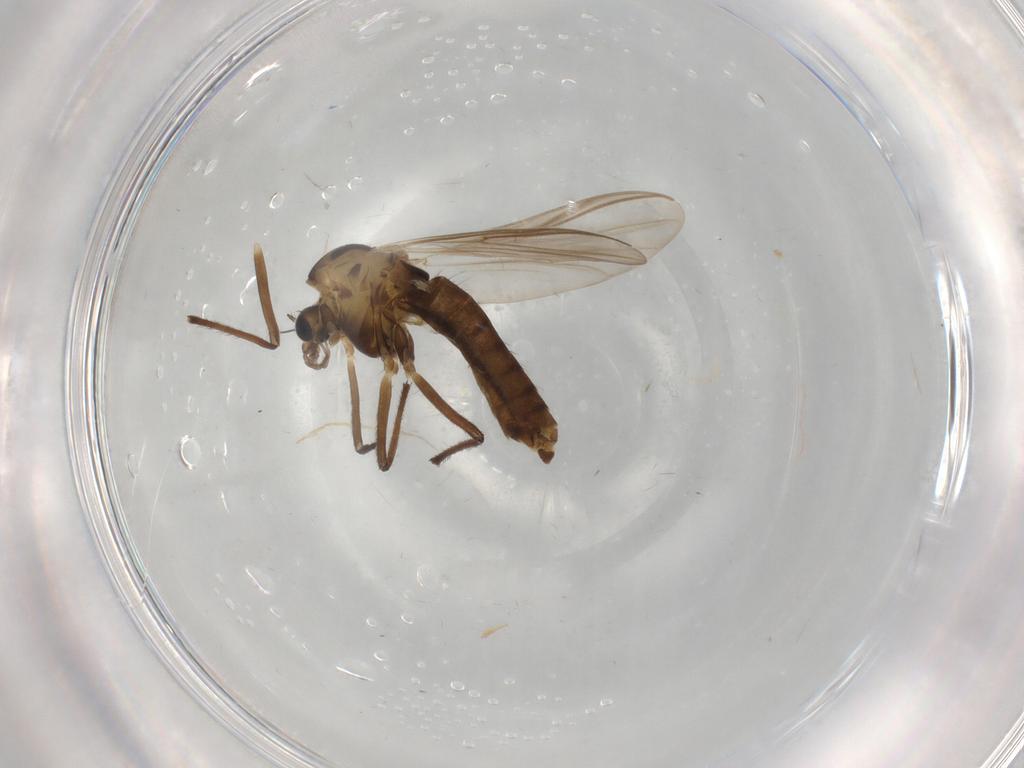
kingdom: Animalia
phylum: Arthropoda
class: Insecta
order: Diptera
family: Chironomidae
